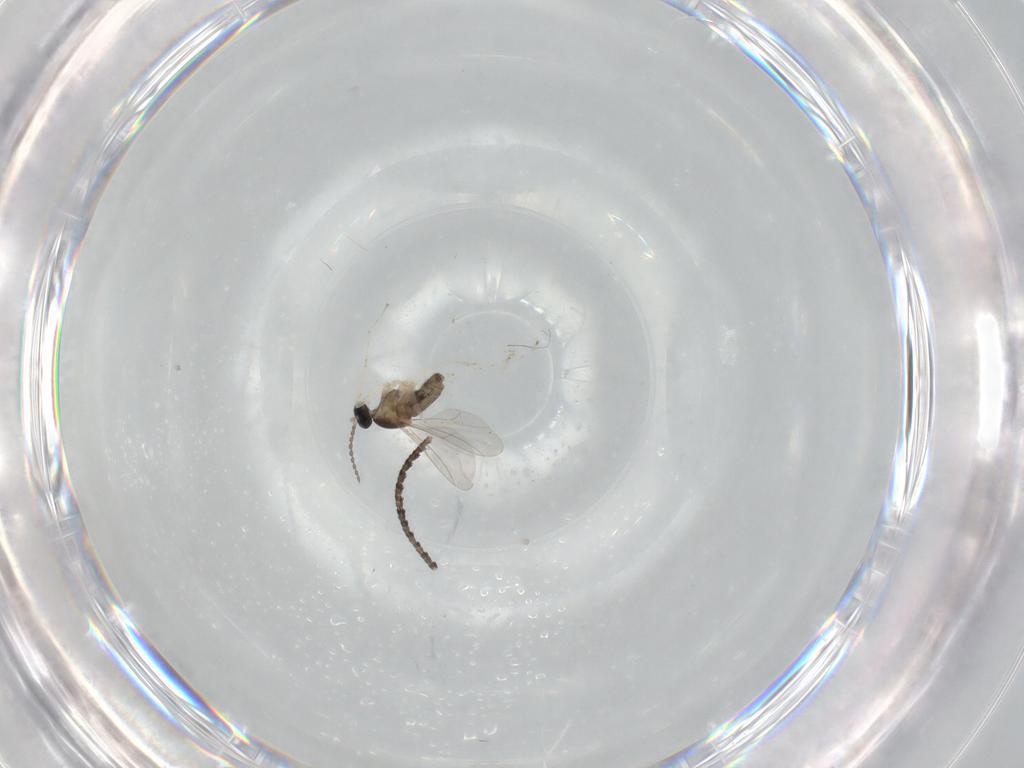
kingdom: Animalia
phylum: Arthropoda
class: Insecta
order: Diptera
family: Cecidomyiidae
